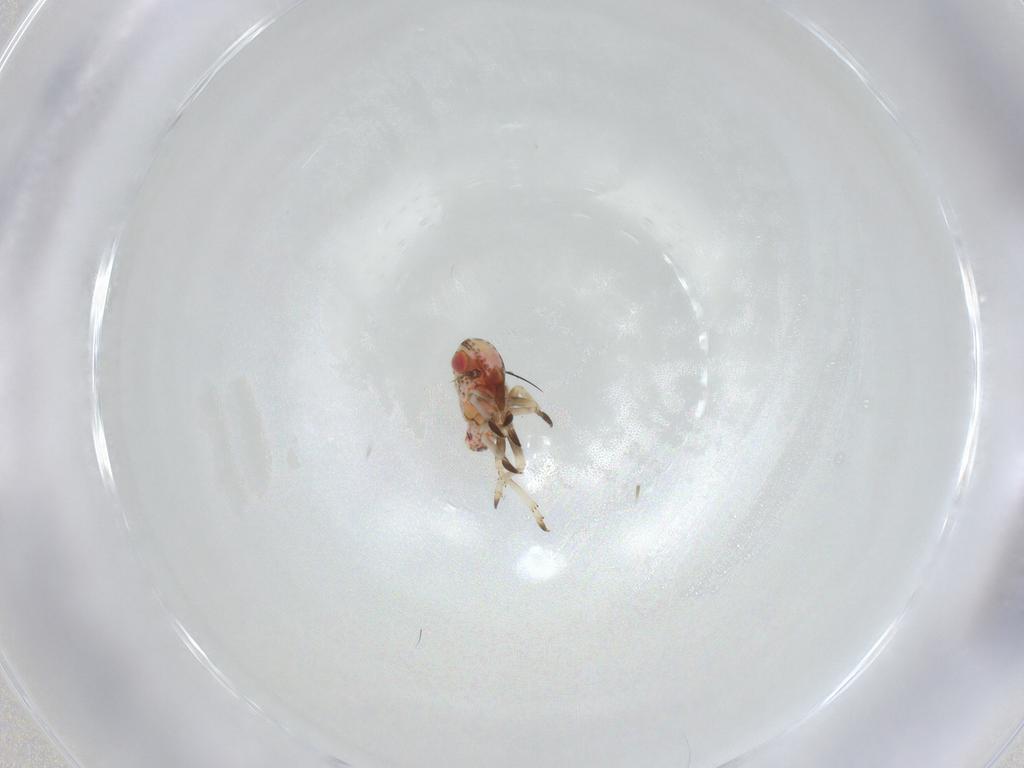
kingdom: Animalia
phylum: Arthropoda
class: Insecta
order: Hemiptera
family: Tropiduchidae
